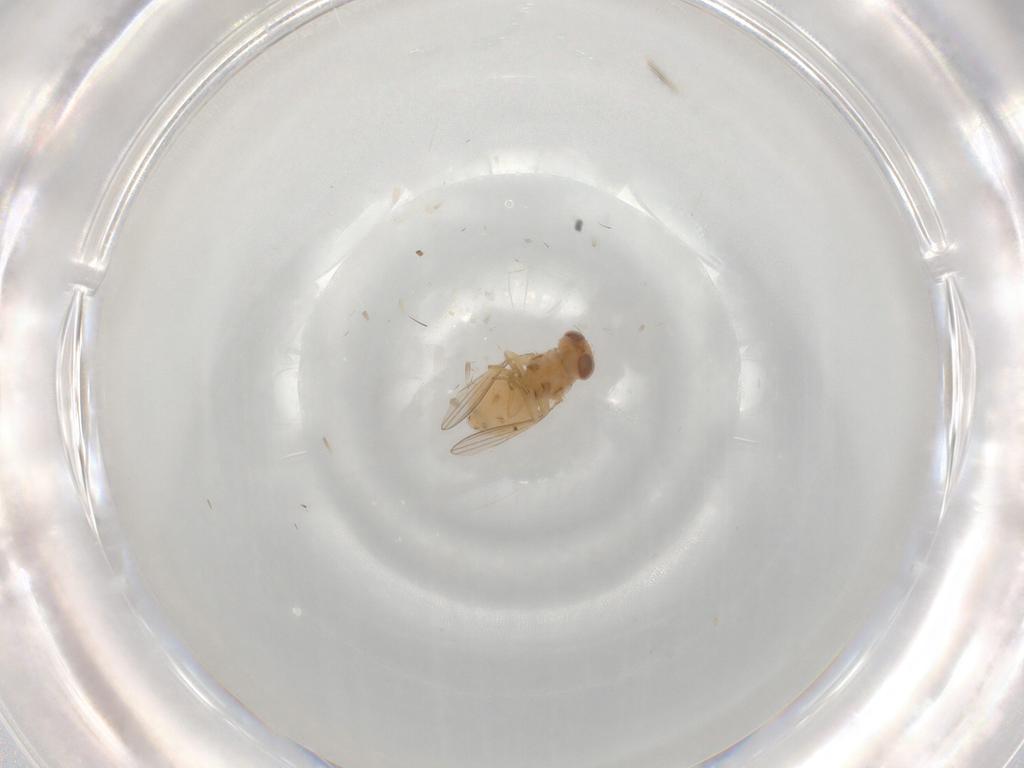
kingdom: Animalia
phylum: Arthropoda
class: Insecta
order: Diptera
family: Chyromyidae
